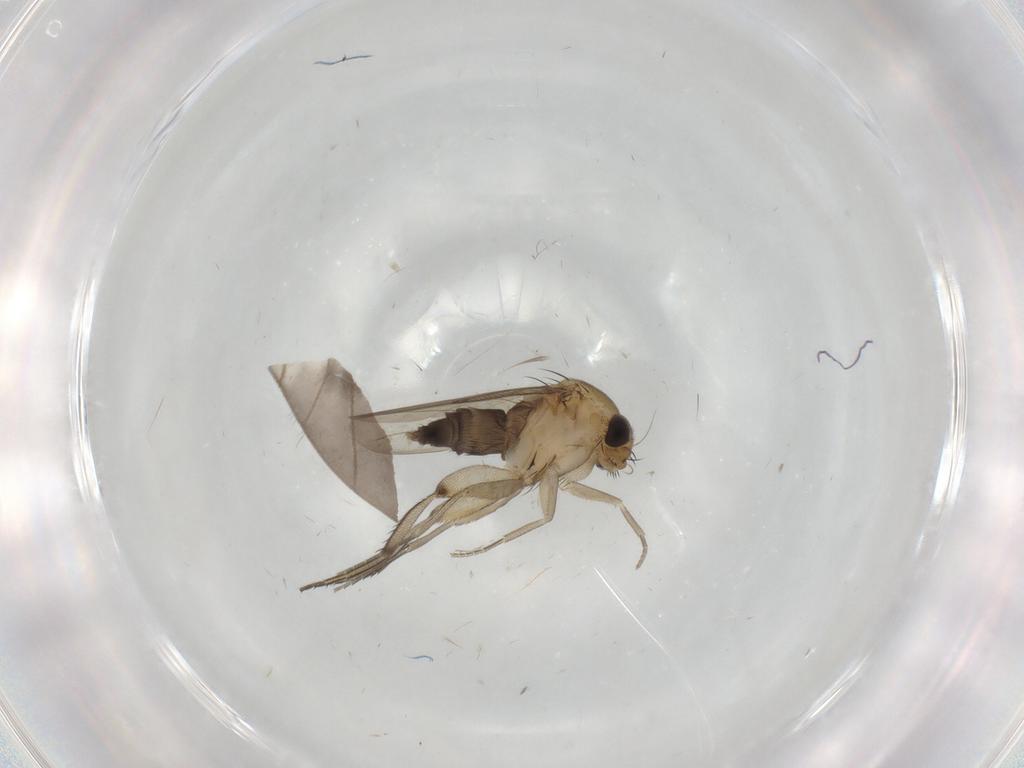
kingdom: Animalia
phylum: Arthropoda
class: Insecta
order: Diptera
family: Limoniidae
